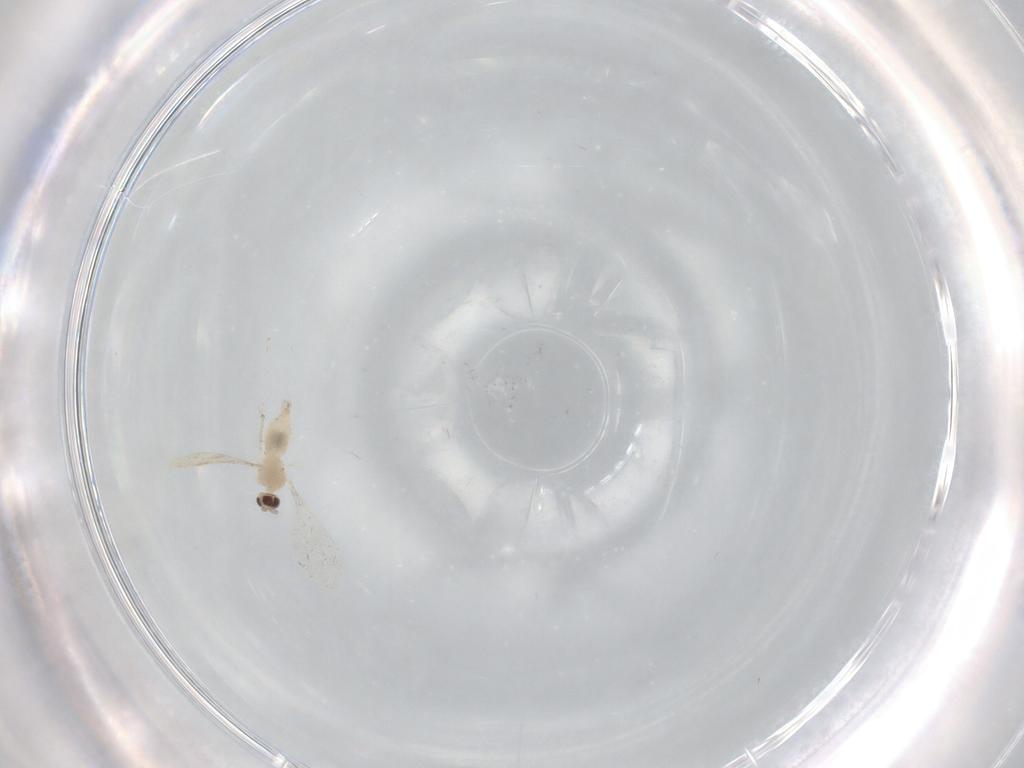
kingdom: Animalia
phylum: Arthropoda
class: Insecta
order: Diptera
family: Cecidomyiidae
